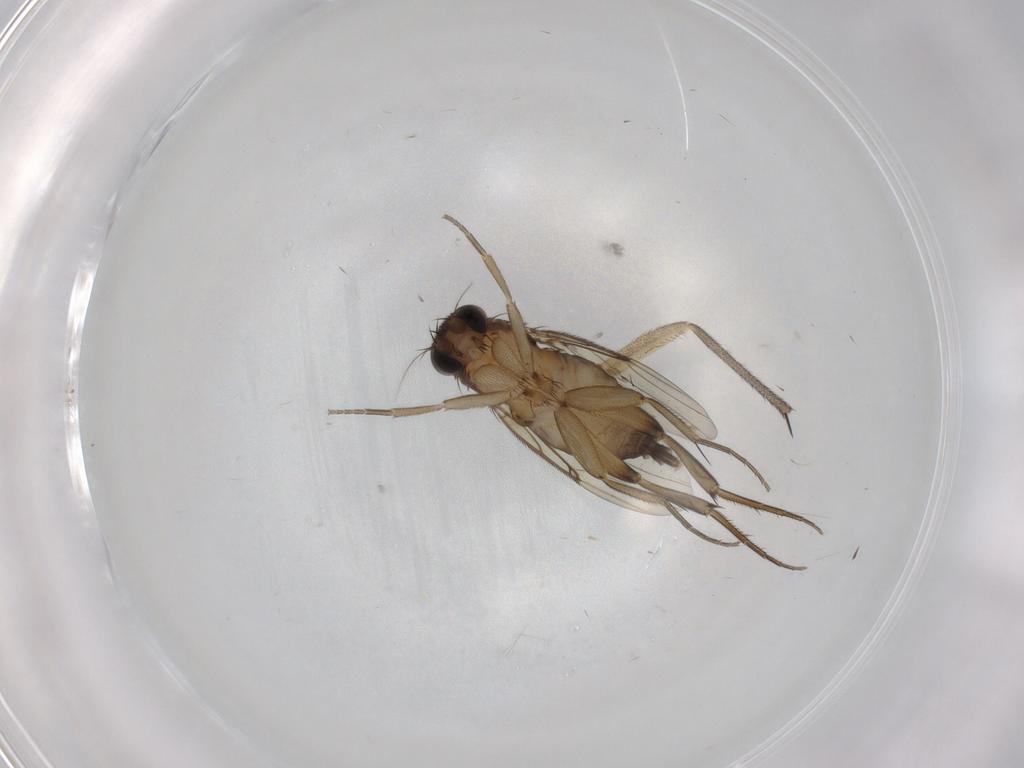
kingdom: Animalia
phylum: Arthropoda
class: Insecta
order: Diptera
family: Phoridae
